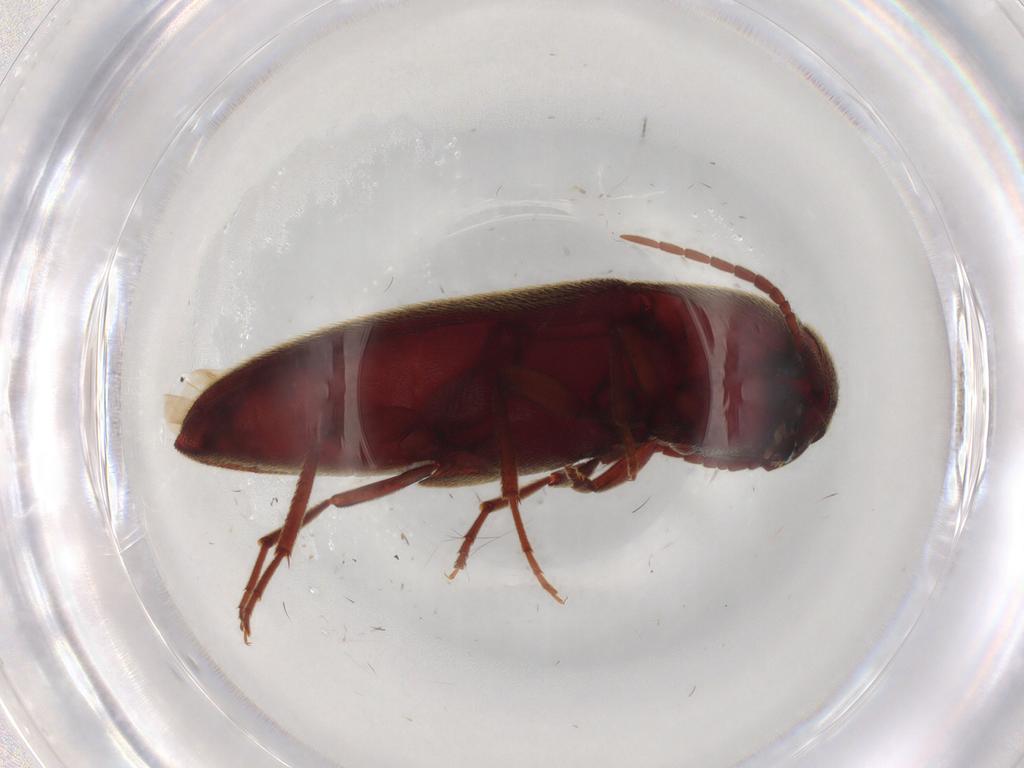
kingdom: Animalia
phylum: Arthropoda
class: Insecta
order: Coleoptera
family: Eucnemidae
